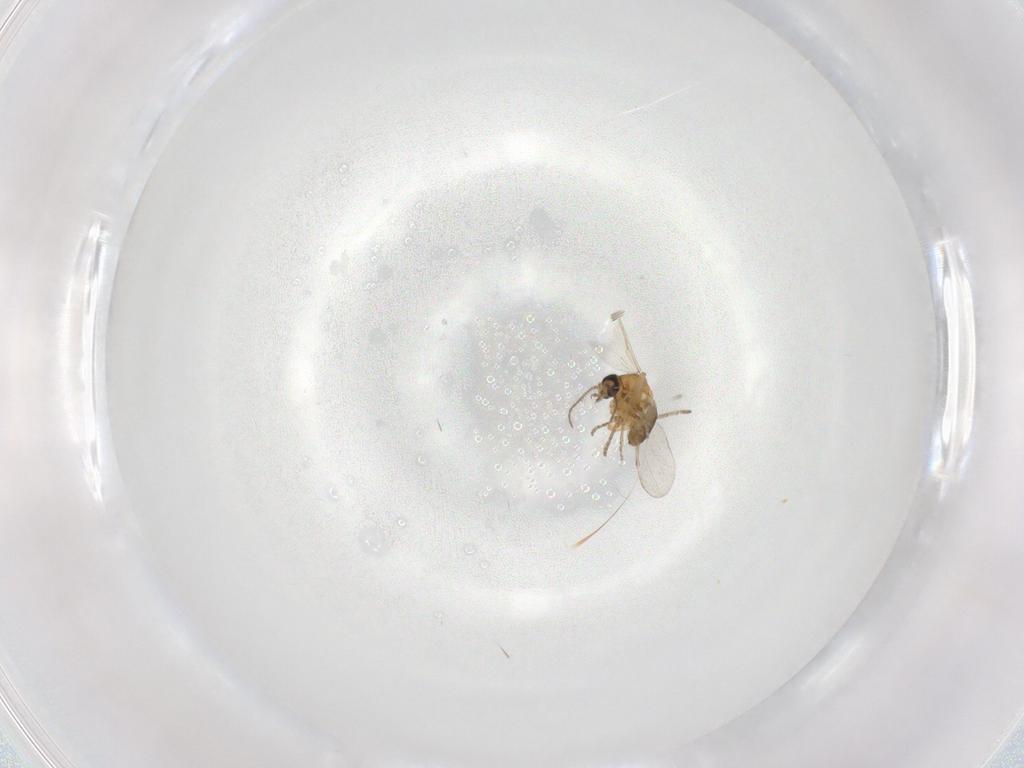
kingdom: Animalia
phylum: Arthropoda
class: Insecta
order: Diptera
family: Ceratopogonidae
